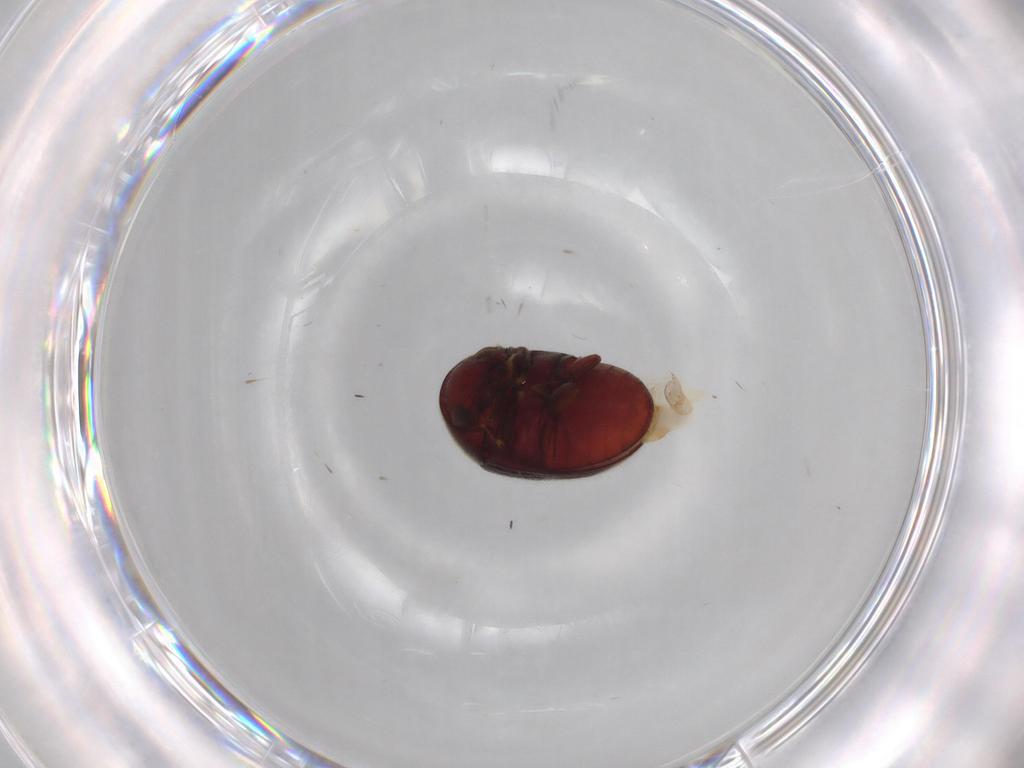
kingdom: Animalia
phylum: Arthropoda
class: Insecta
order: Coleoptera
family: Ptinidae
